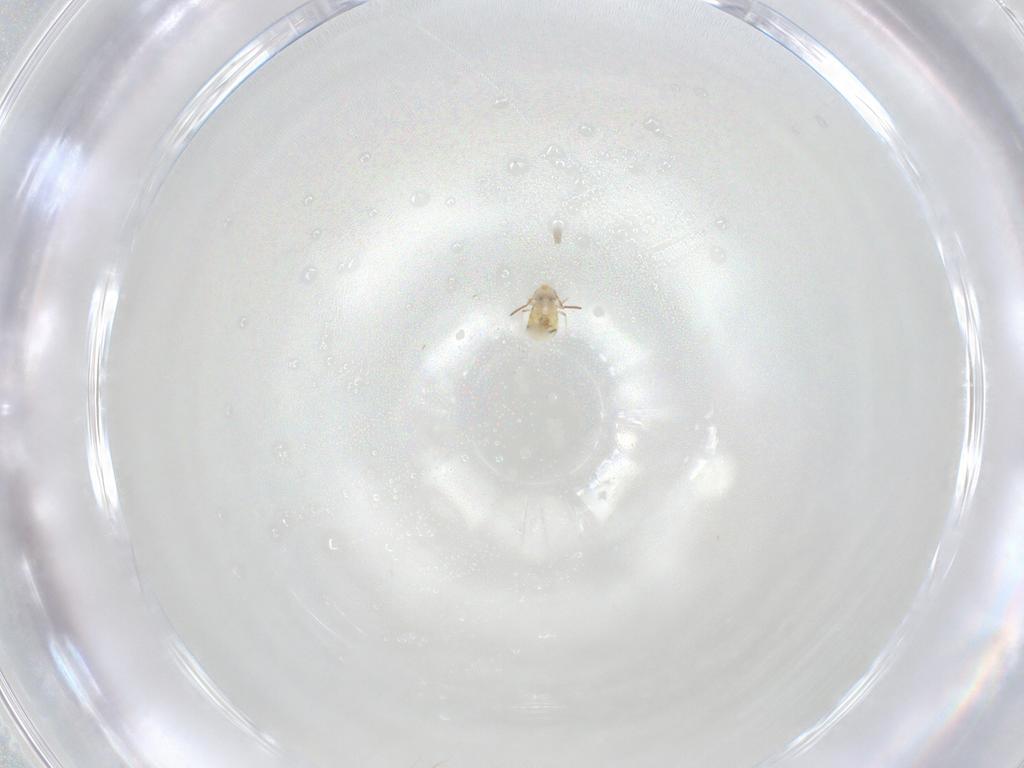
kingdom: Animalia
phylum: Arthropoda
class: Collembola
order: Symphypleona
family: Bourletiellidae
